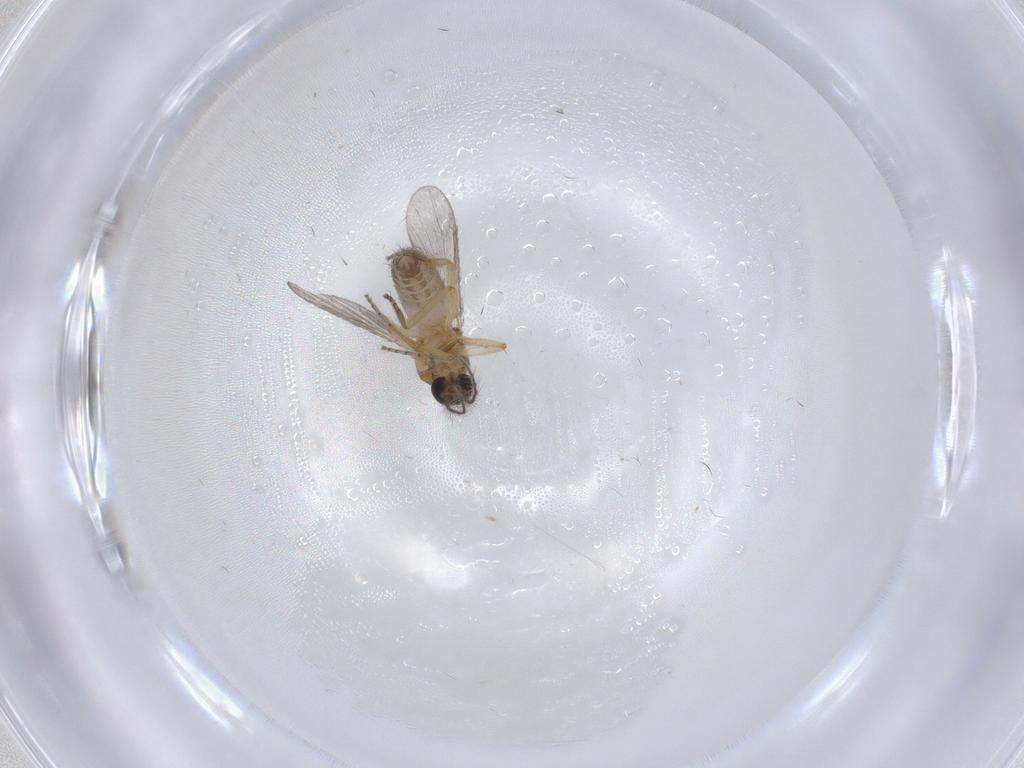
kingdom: Animalia
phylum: Arthropoda
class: Insecta
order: Diptera
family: Ceratopogonidae
